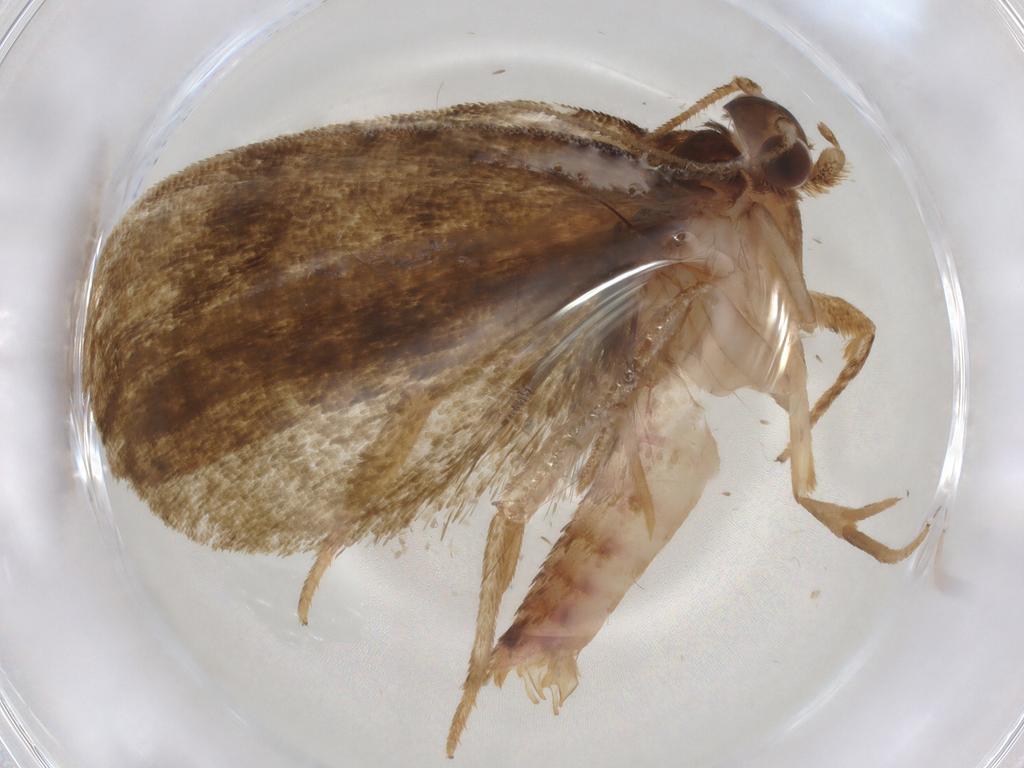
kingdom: Animalia
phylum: Arthropoda
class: Insecta
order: Lepidoptera
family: Geometridae
